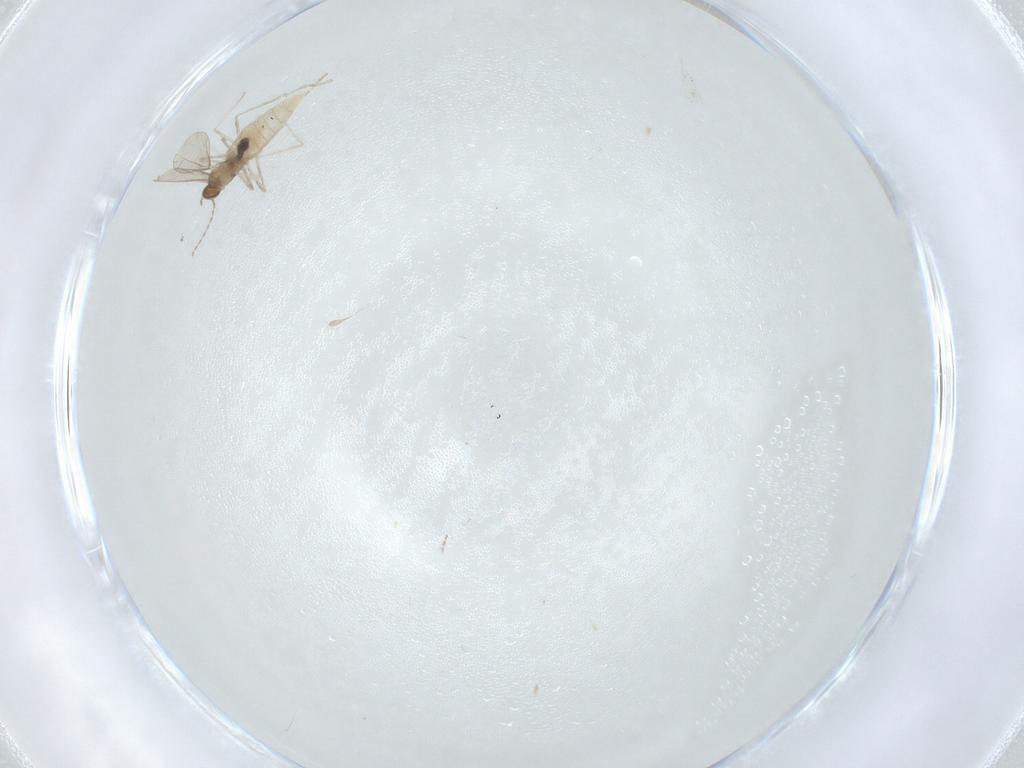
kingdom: Animalia
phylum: Arthropoda
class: Insecta
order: Diptera
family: Cecidomyiidae
